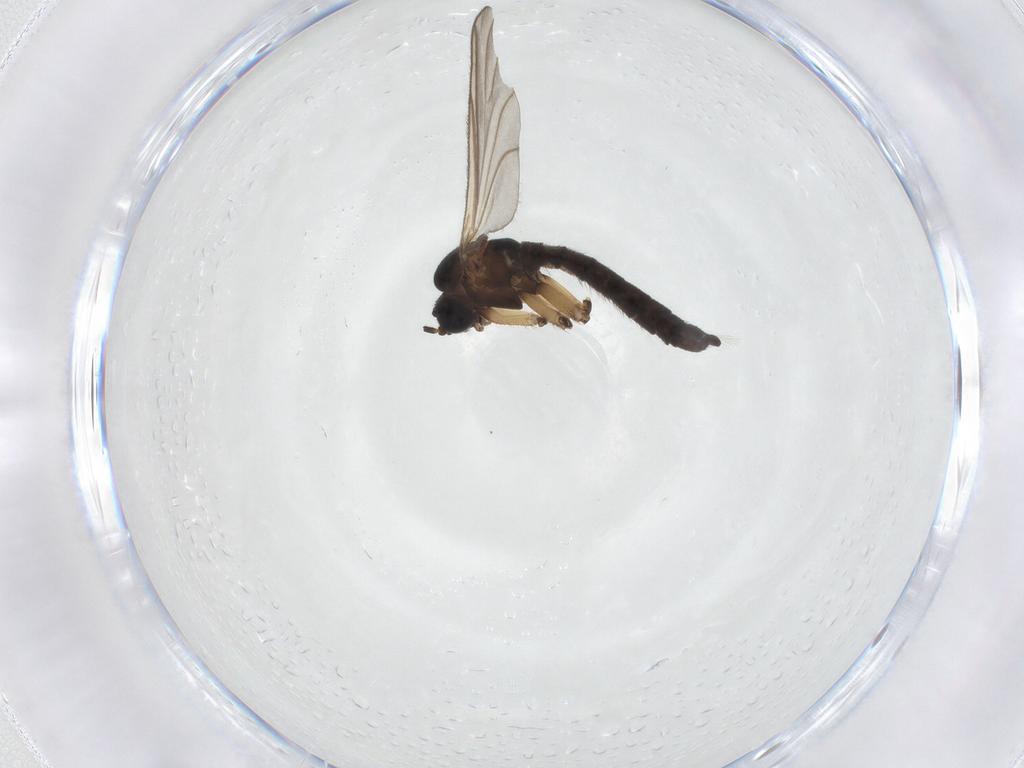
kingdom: Animalia
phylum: Arthropoda
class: Insecta
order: Diptera
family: Sciaridae
